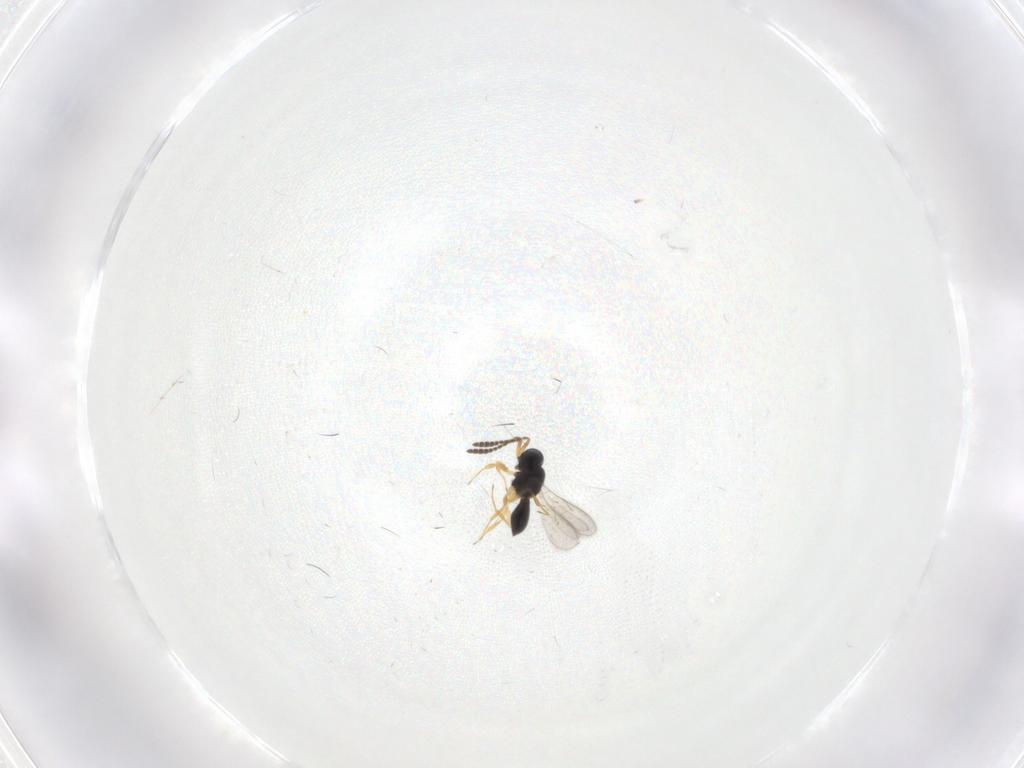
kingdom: Animalia
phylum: Arthropoda
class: Insecta
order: Hymenoptera
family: Scelionidae
